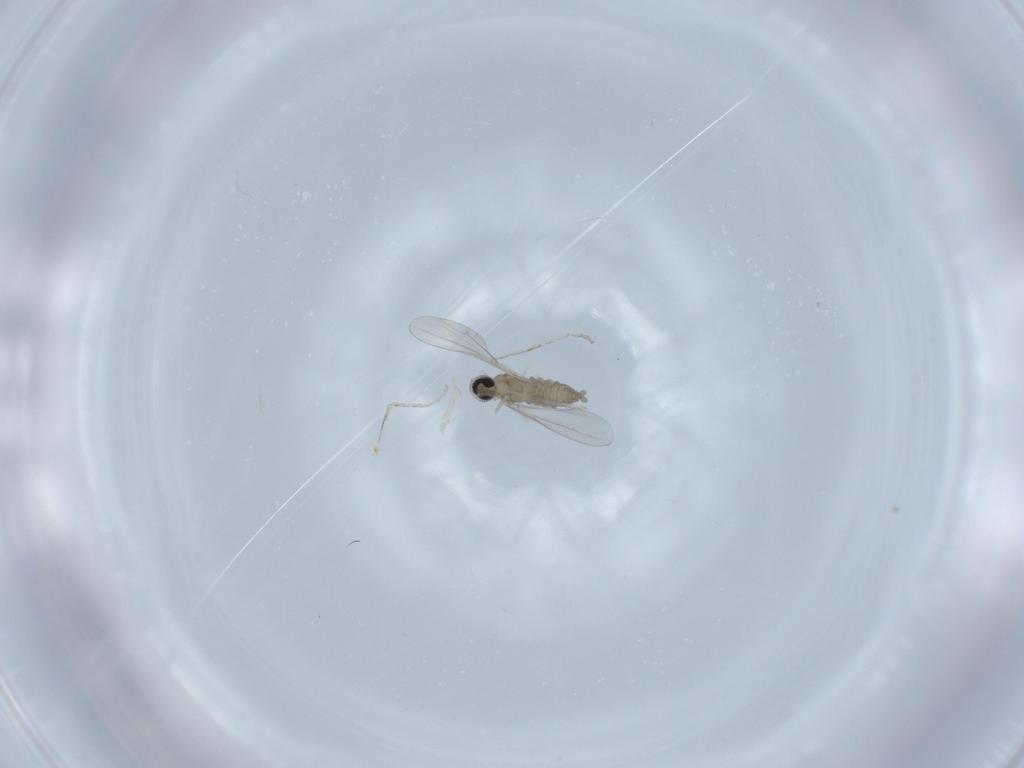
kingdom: Animalia
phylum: Arthropoda
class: Insecta
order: Diptera
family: Cecidomyiidae
